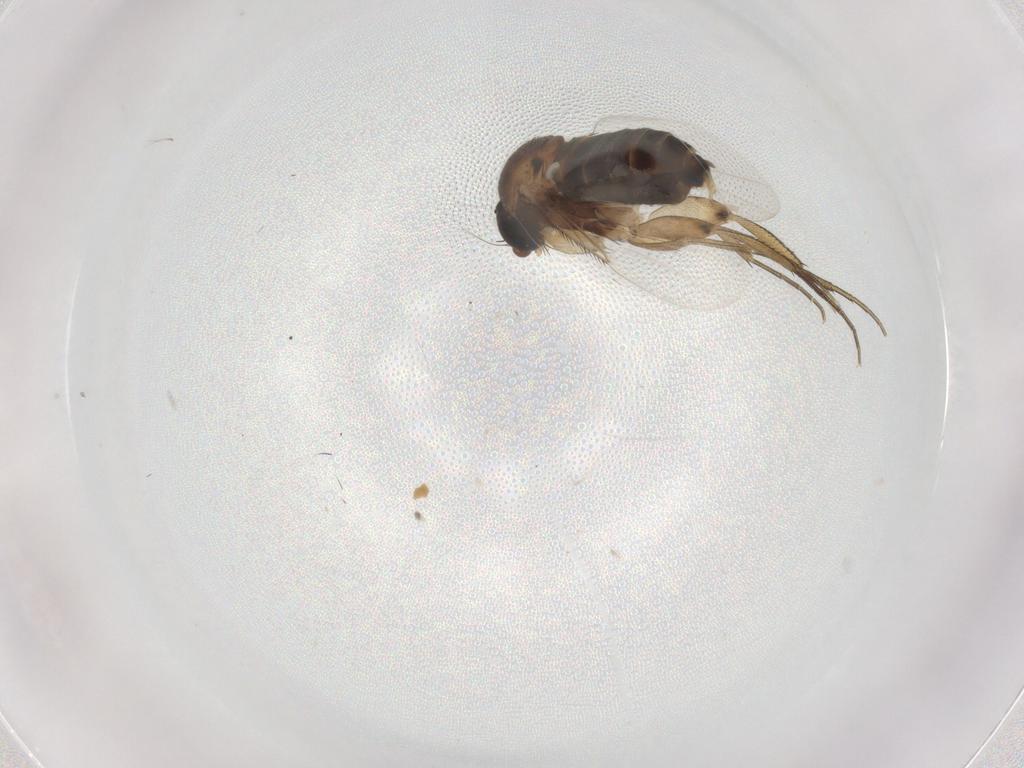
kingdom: Animalia
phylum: Arthropoda
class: Insecta
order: Diptera
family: Phoridae
